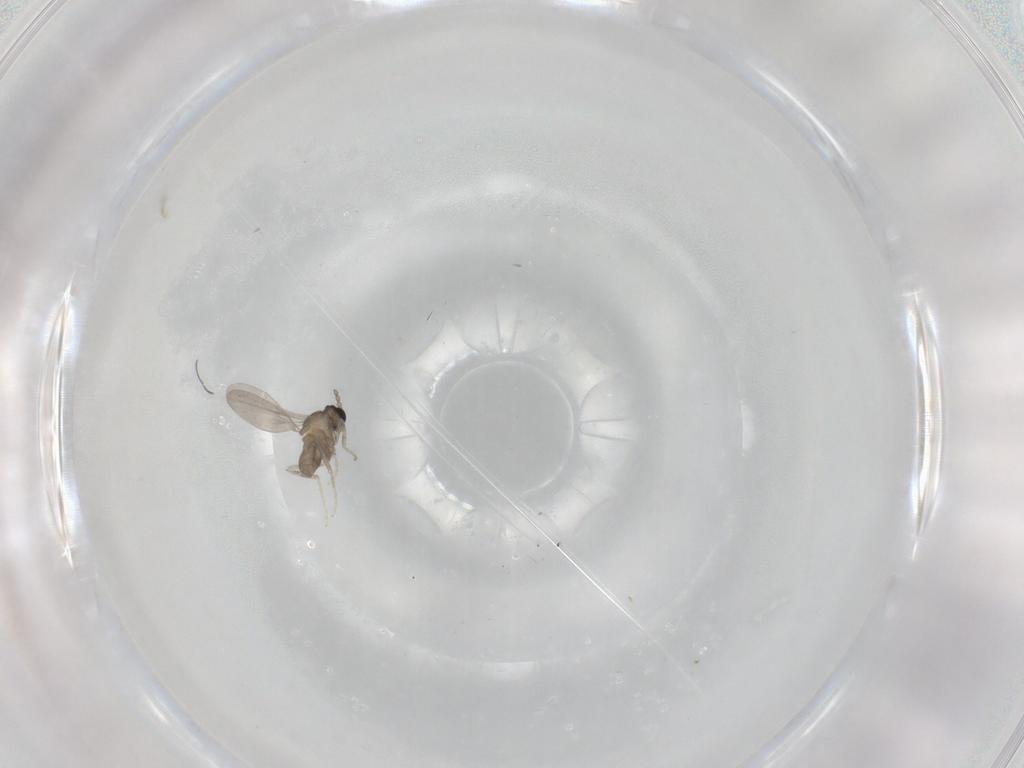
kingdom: Animalia
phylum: Arthropoda
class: Insecta
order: Diptera
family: Cecidomyiidae
